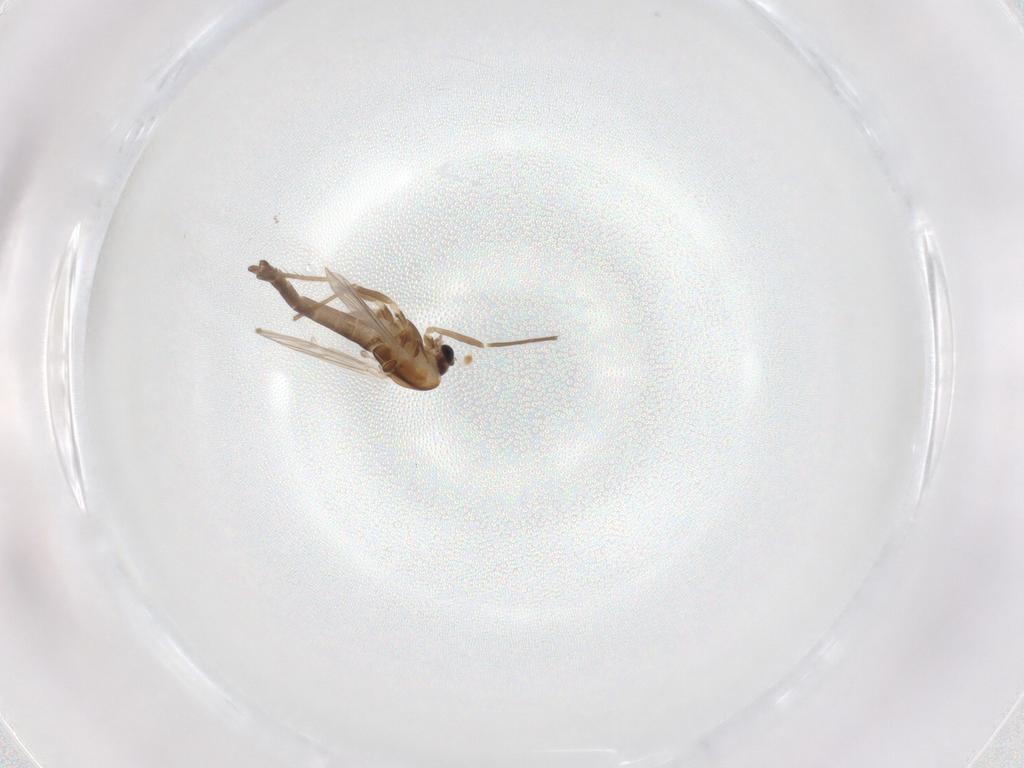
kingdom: Animalia
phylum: Arthropoda
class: Insecta
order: Diptera
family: Chironomidae
